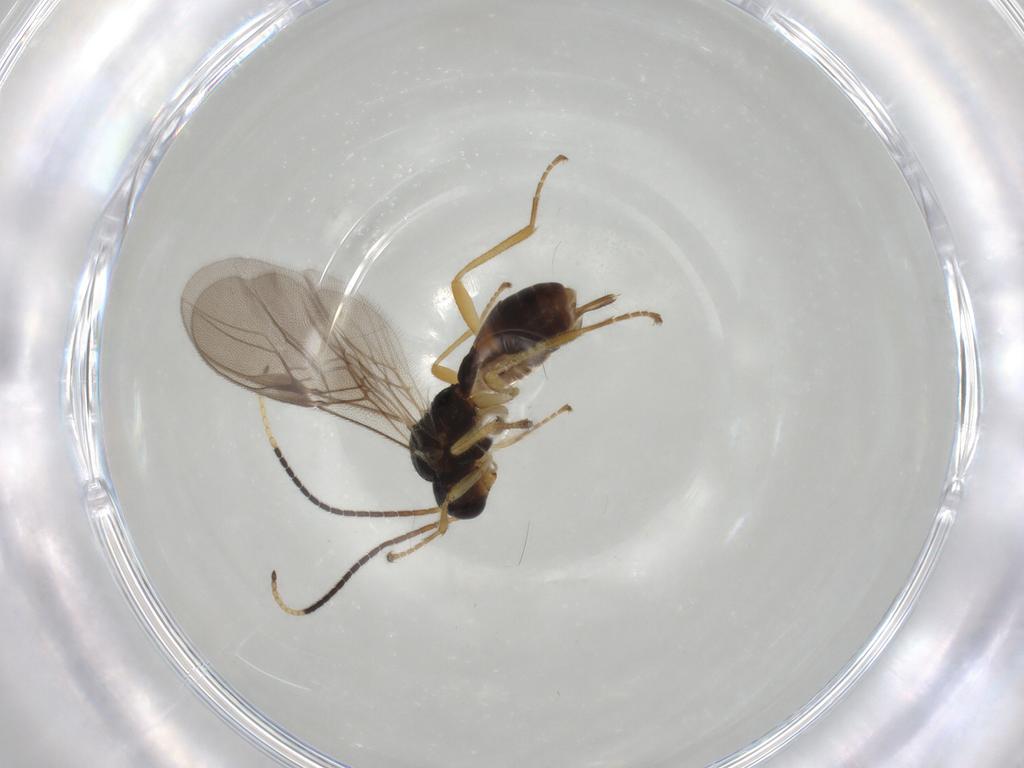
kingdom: Animalia
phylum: Arthropoda
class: Insecta
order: Hymenoptera
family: Braconidae
